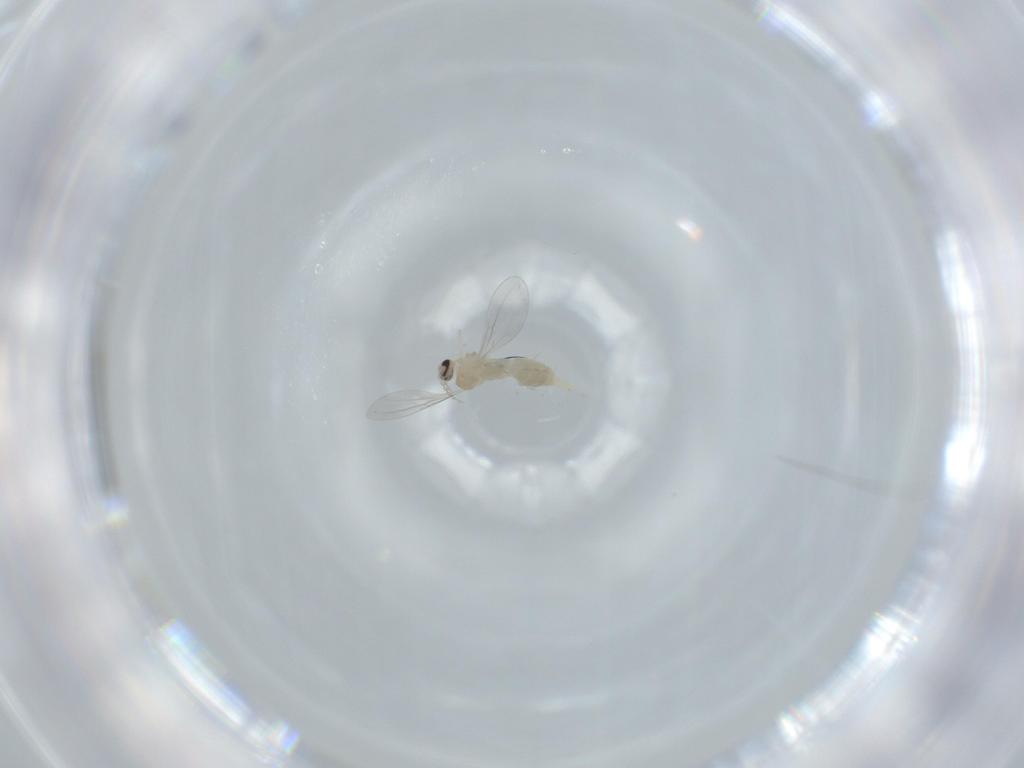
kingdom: Animalia
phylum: Arthropoda
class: Insecta
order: Diptera
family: Cecidomyiidae
